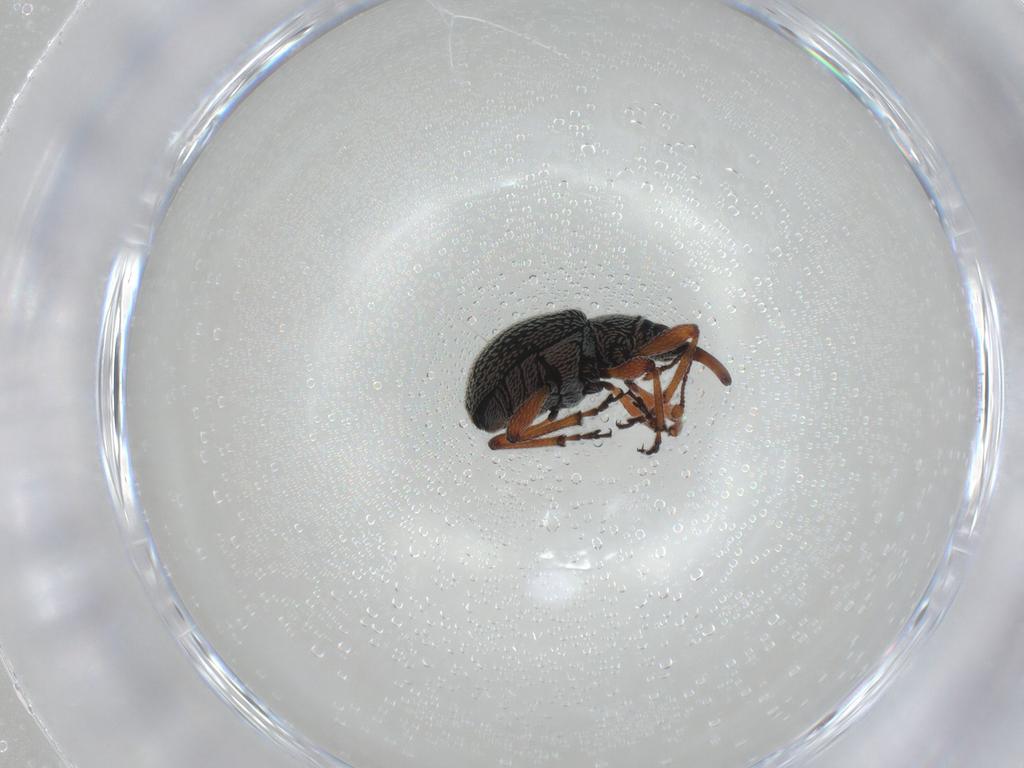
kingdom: Animalia
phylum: Arthropoda
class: Insecta
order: Coleoptera
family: Brentidae
